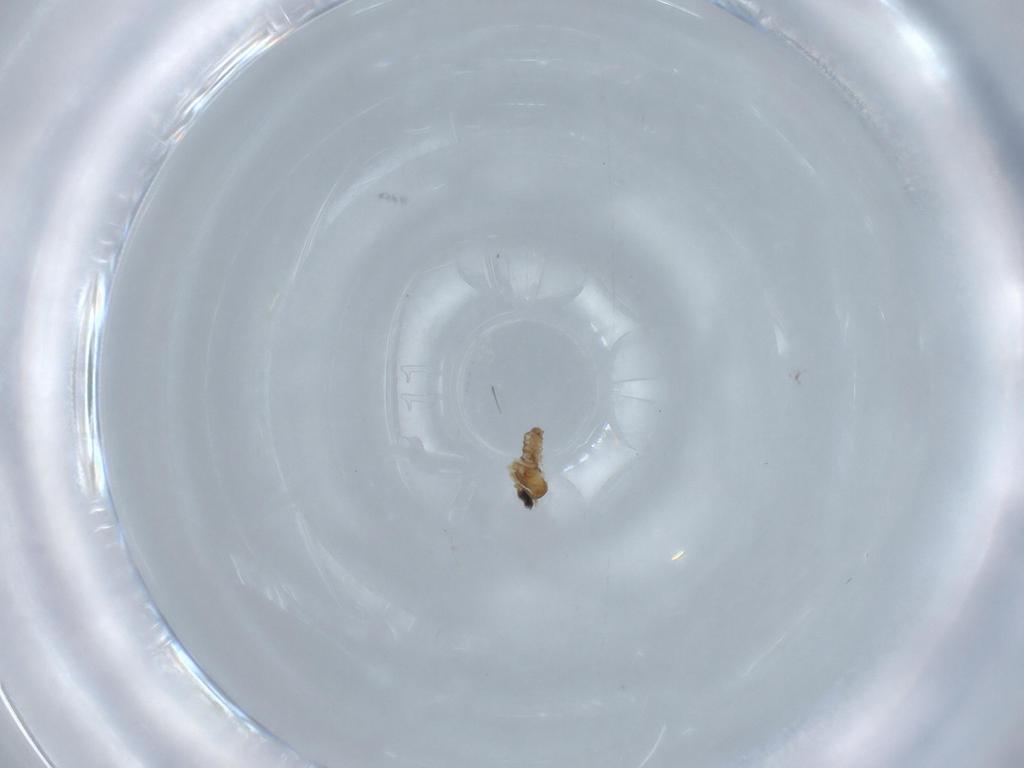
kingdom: Animalia
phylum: Arthropoda
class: Insecta
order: Diptera
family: Cecidomyiidae
